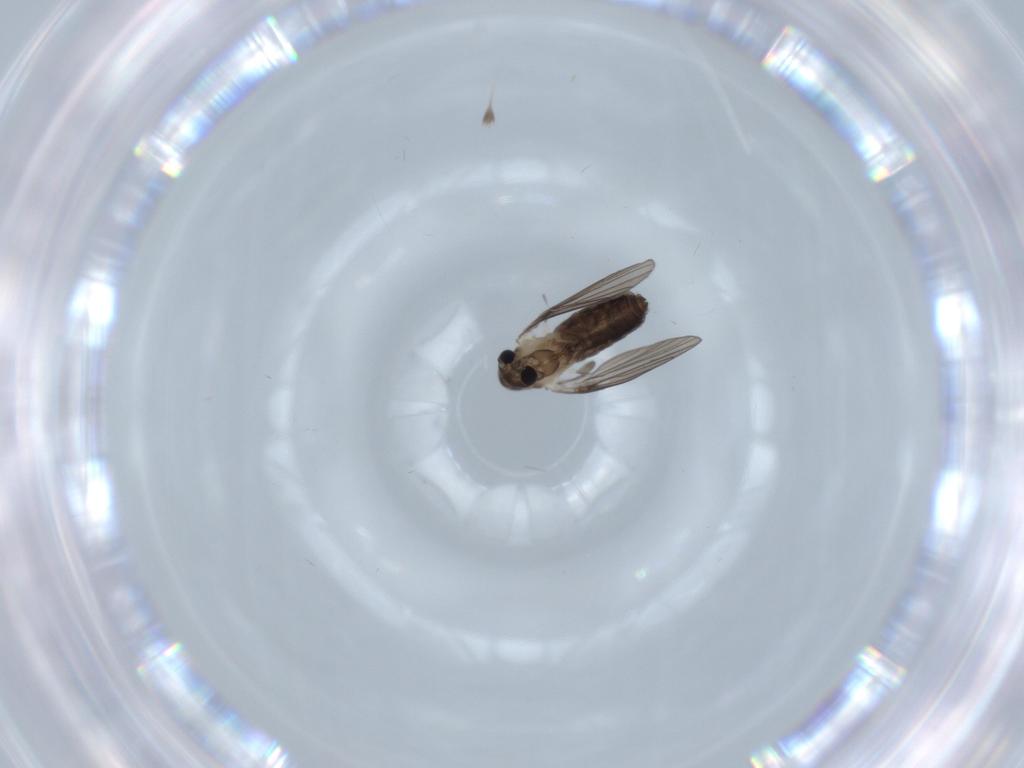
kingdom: Animalia
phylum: Arthropoda
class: Insecta
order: Diptera
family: Psychodidae
